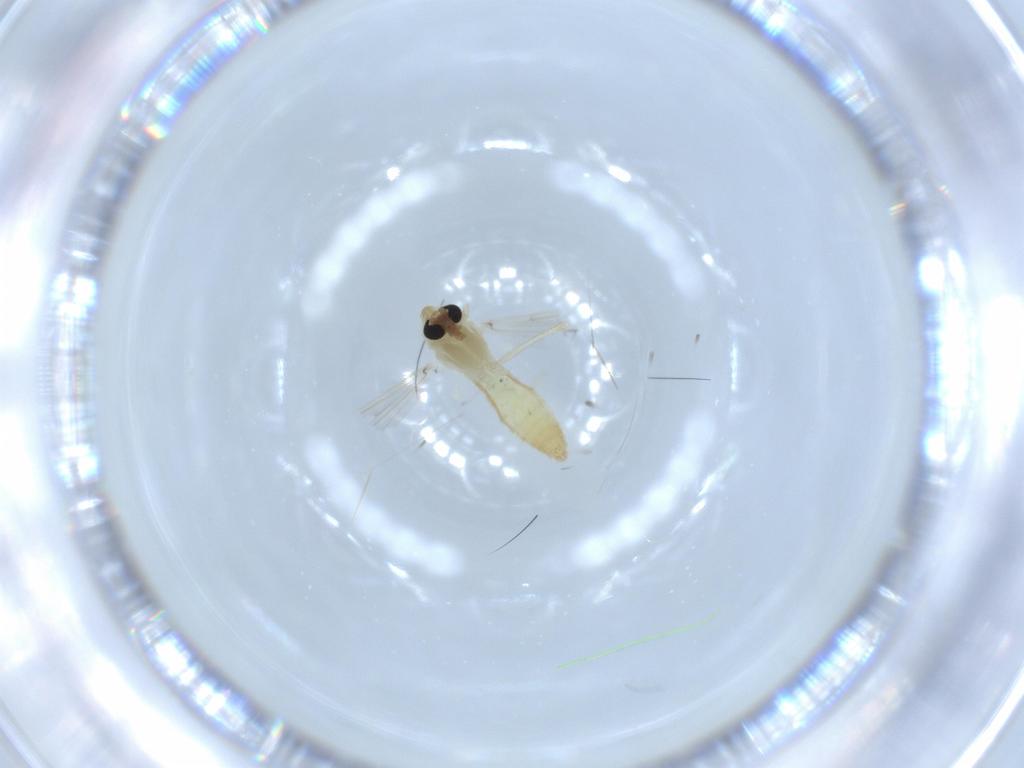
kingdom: Animalia
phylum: Arthropoda
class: Insecta
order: Diptera
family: Chironomidae
